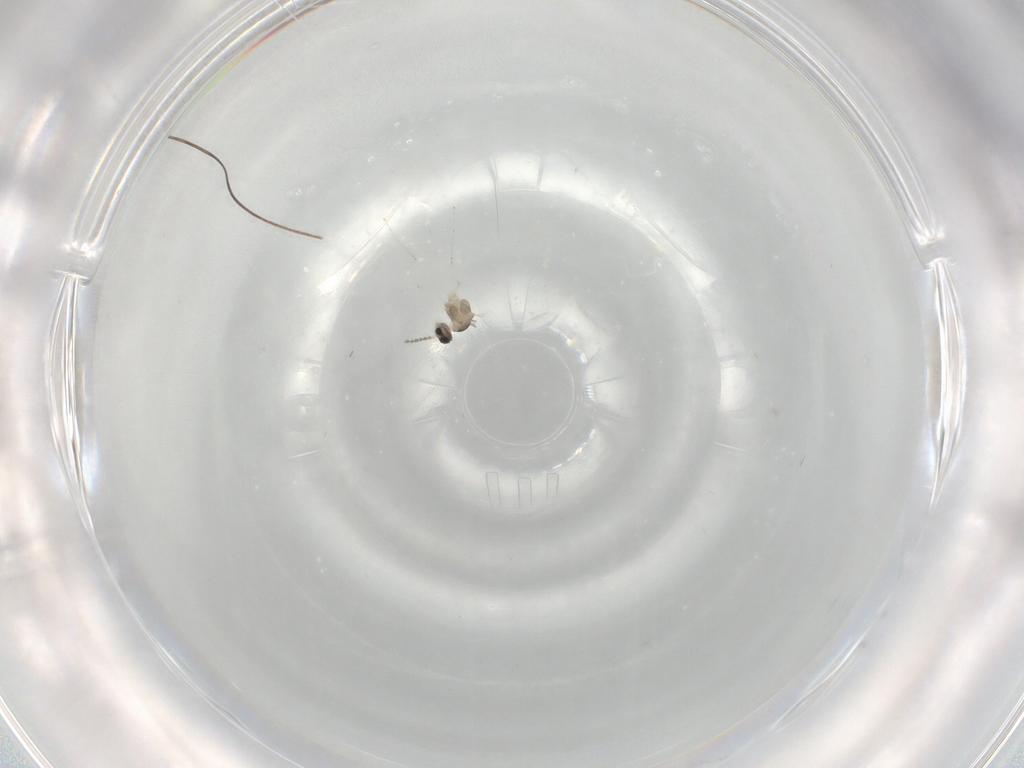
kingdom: Animalia
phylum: Arthropoda
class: Insecta
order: Diptera
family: Cecidomyiidae
